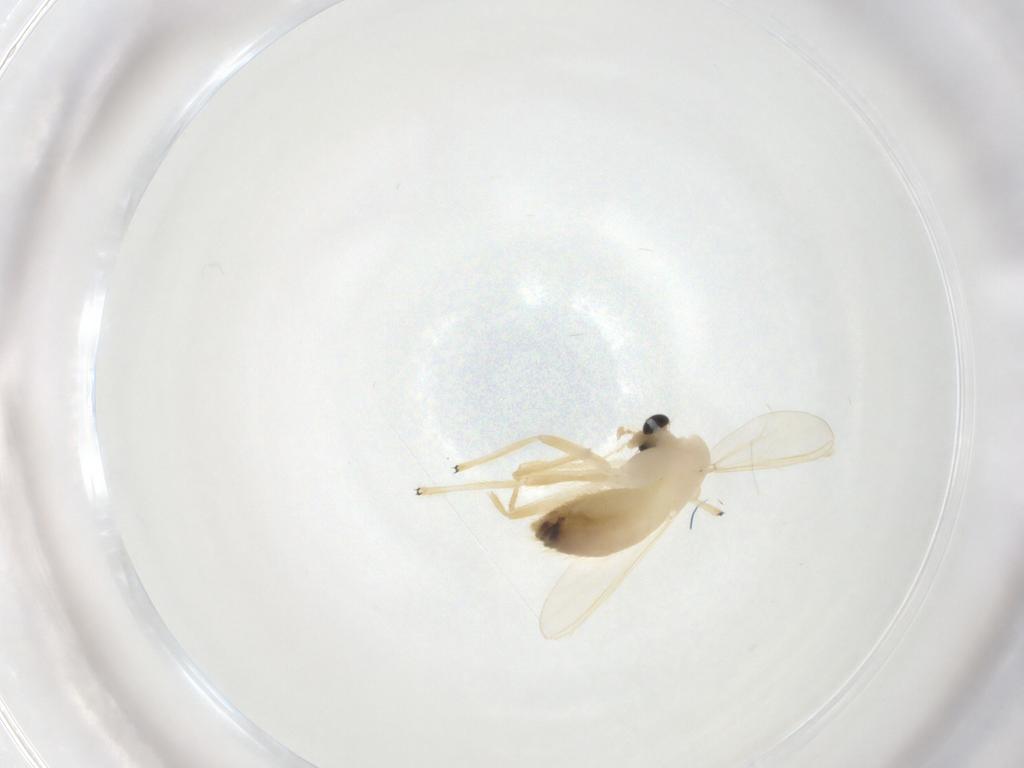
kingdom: Animalia
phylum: Arthropoda
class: Insecta
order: Diptera
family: Chironomidae
